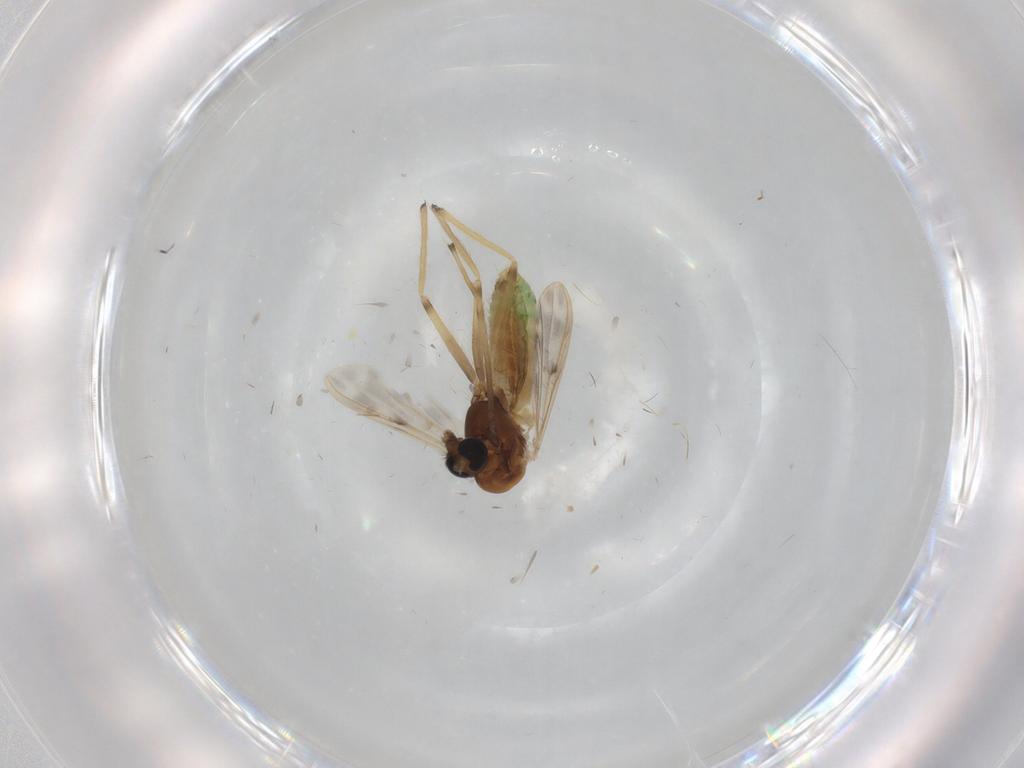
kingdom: Animalia
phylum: Arthropoda
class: Insecta
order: Diptera
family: Chironomidae
